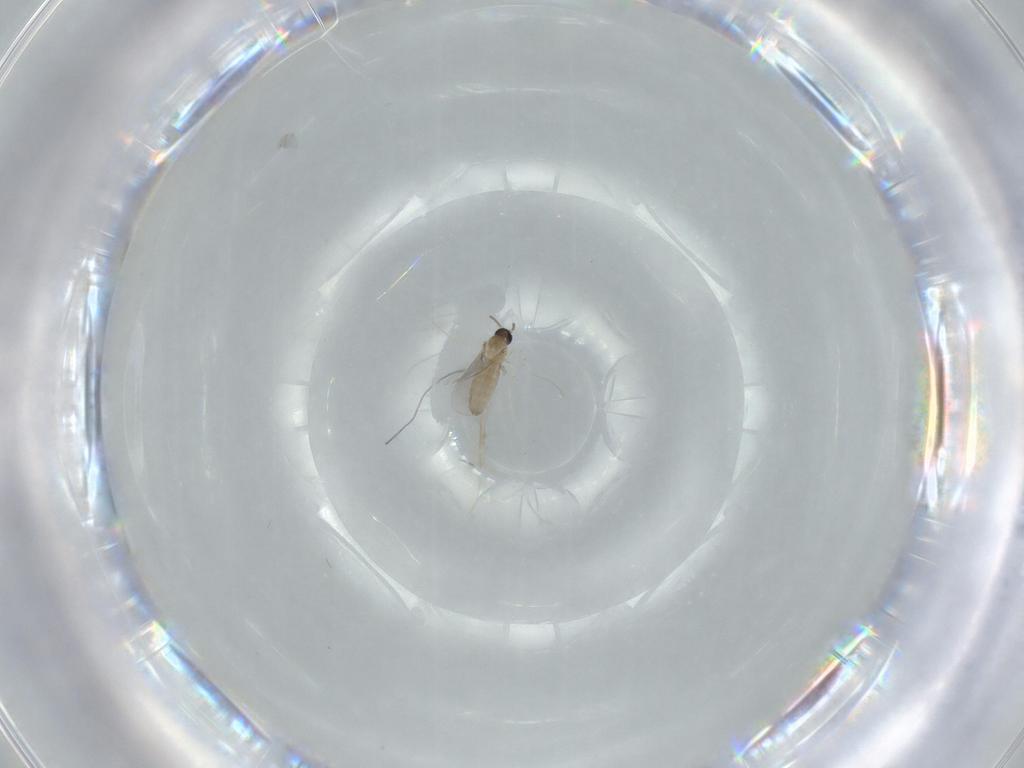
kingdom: Animalia
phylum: Arthropoda
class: Insecta
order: Diptera
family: Cecidomyiidae
